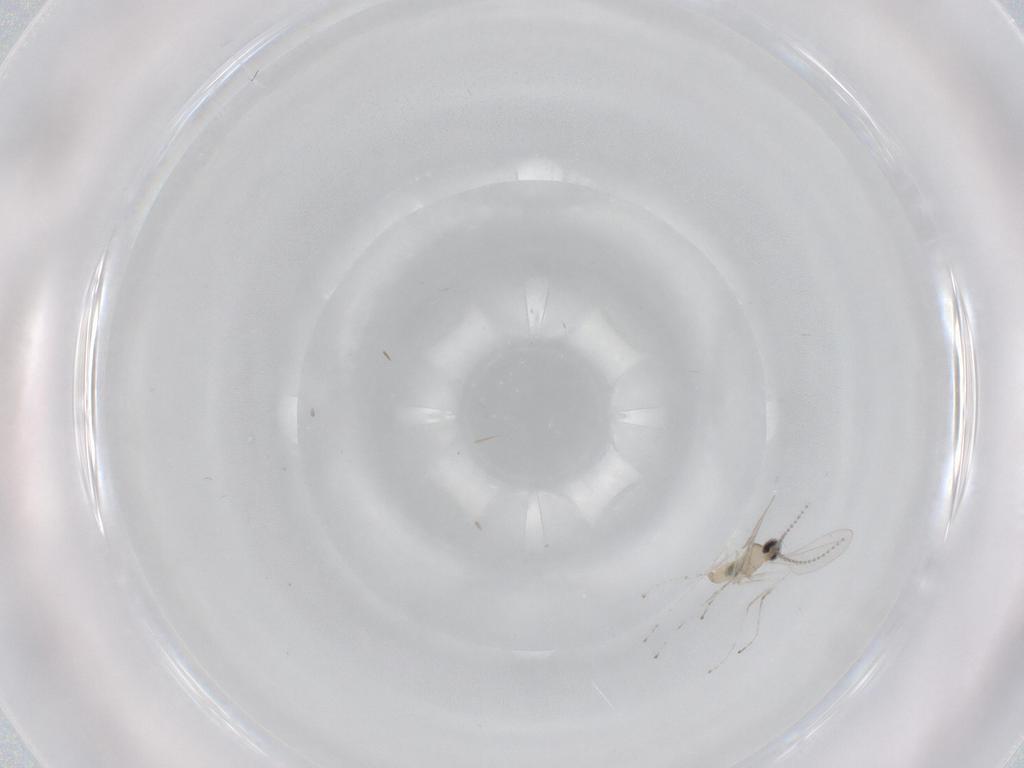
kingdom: Animalia
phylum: Arthropoda
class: Insecta
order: Diptera
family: Cecidomyiidae
